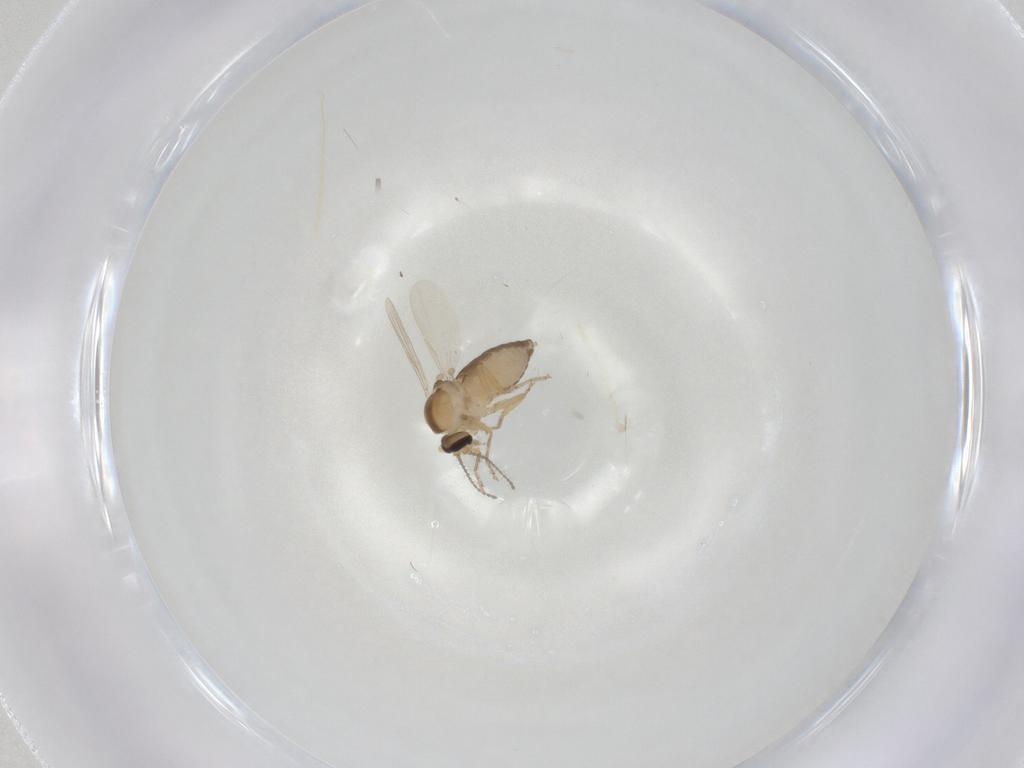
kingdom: Animalia
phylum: Arthropoda
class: Insecta
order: Diptera
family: Ceratopogonidae
